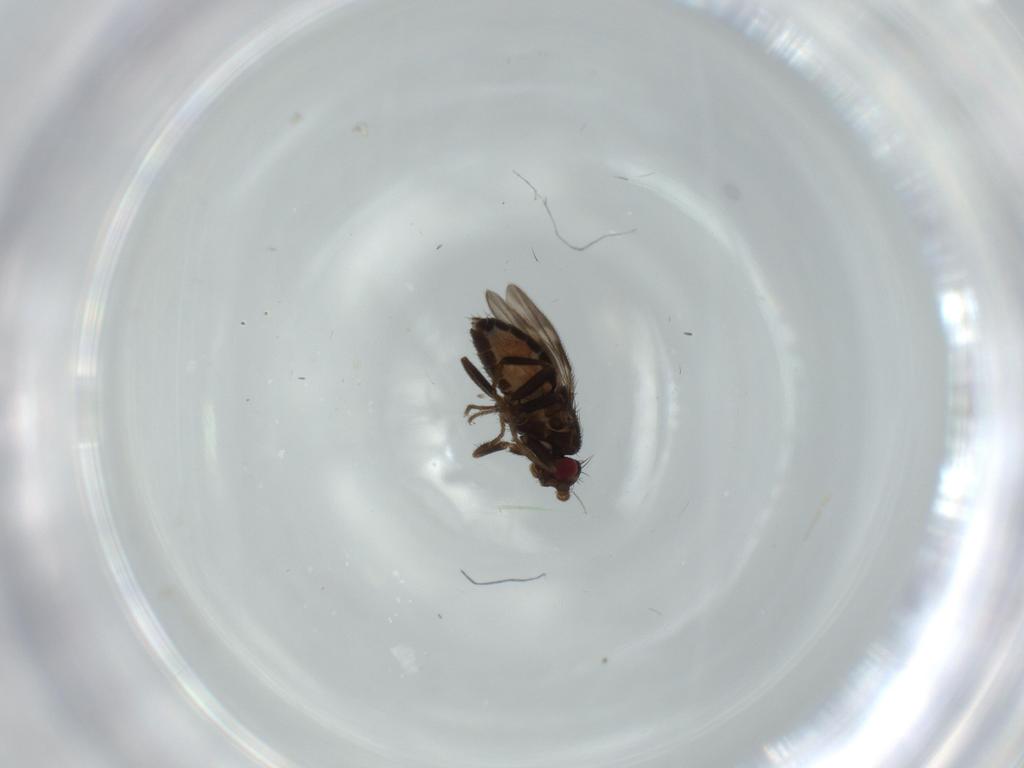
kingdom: Animalia
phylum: Arthropoda
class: Insecta
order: Diptera
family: Sphaeroceridae
